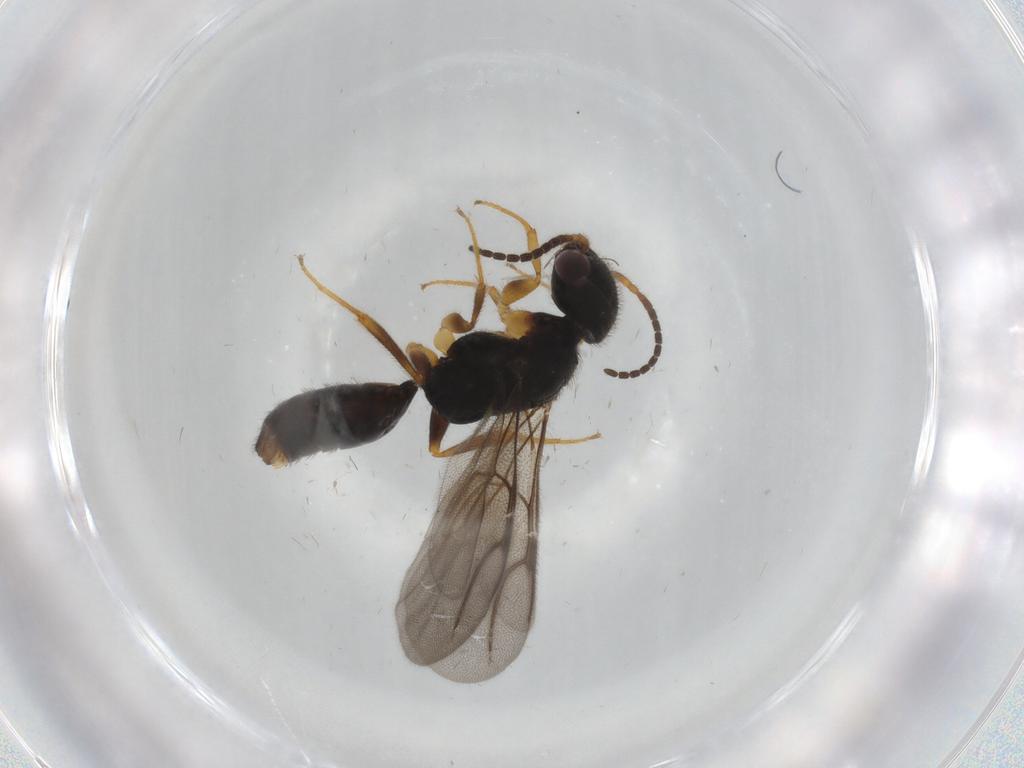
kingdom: Animalia
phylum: Arthropoda
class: Insecta
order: Hymenoptera
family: Bethylidae
